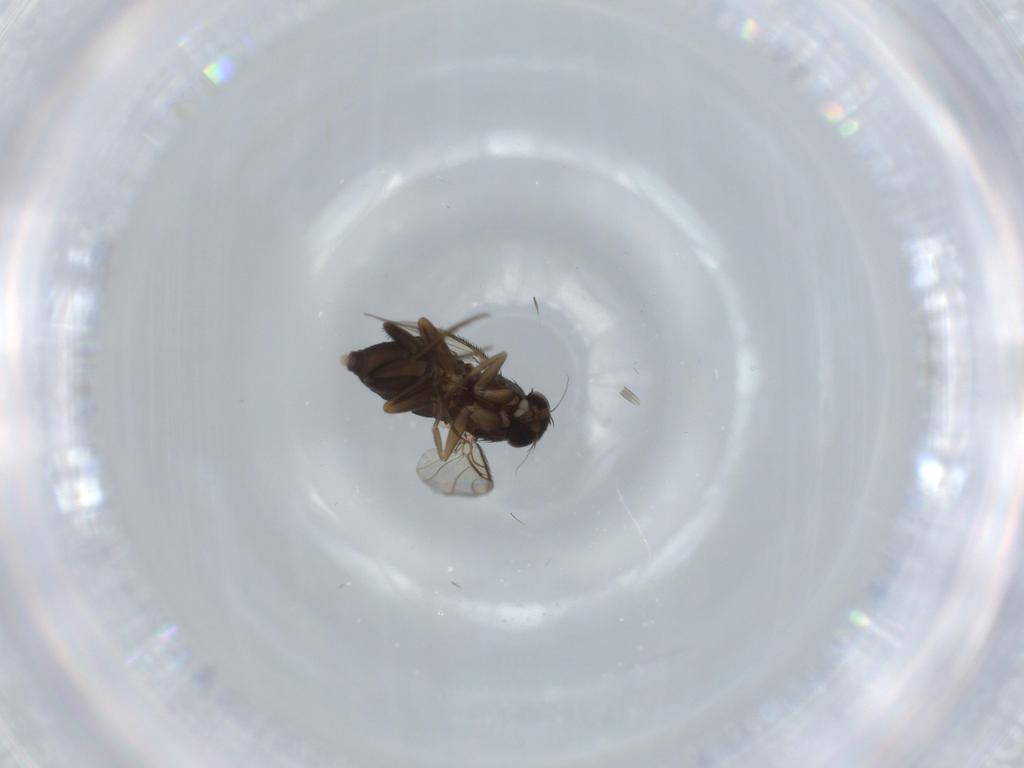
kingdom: Animalia
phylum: Arthropoda
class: Insecta
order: Diptera
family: Phoridae
